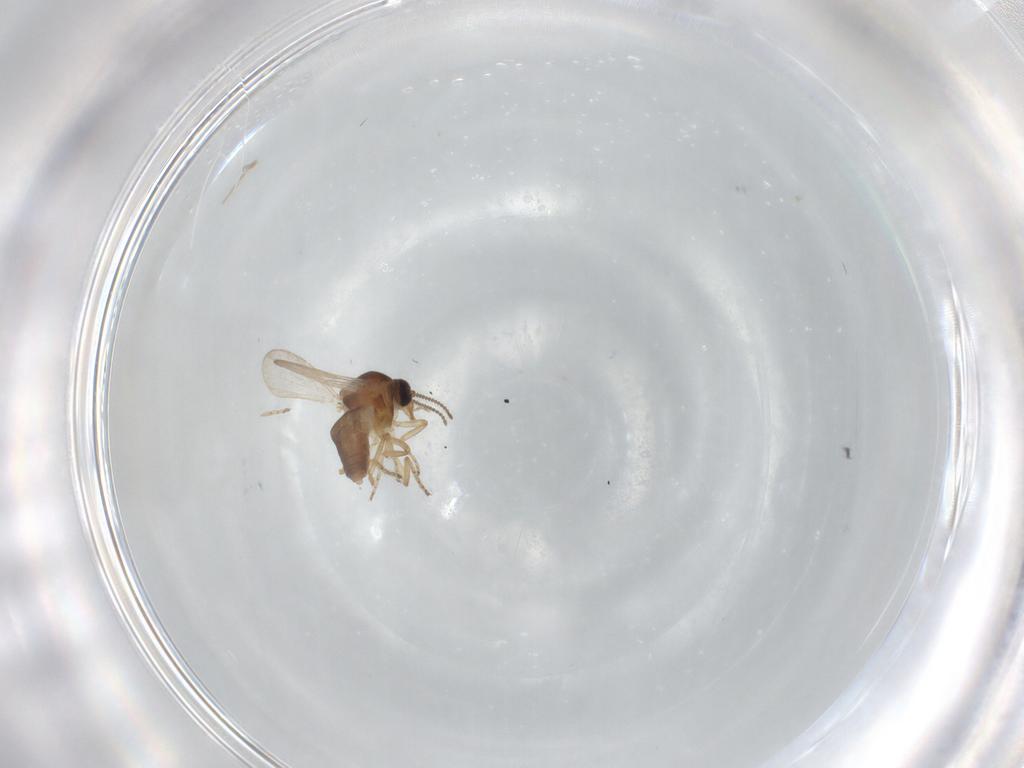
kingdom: Animalia
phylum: Arthropoda
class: Insecta
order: Diptera
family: Ceratopogonidae
